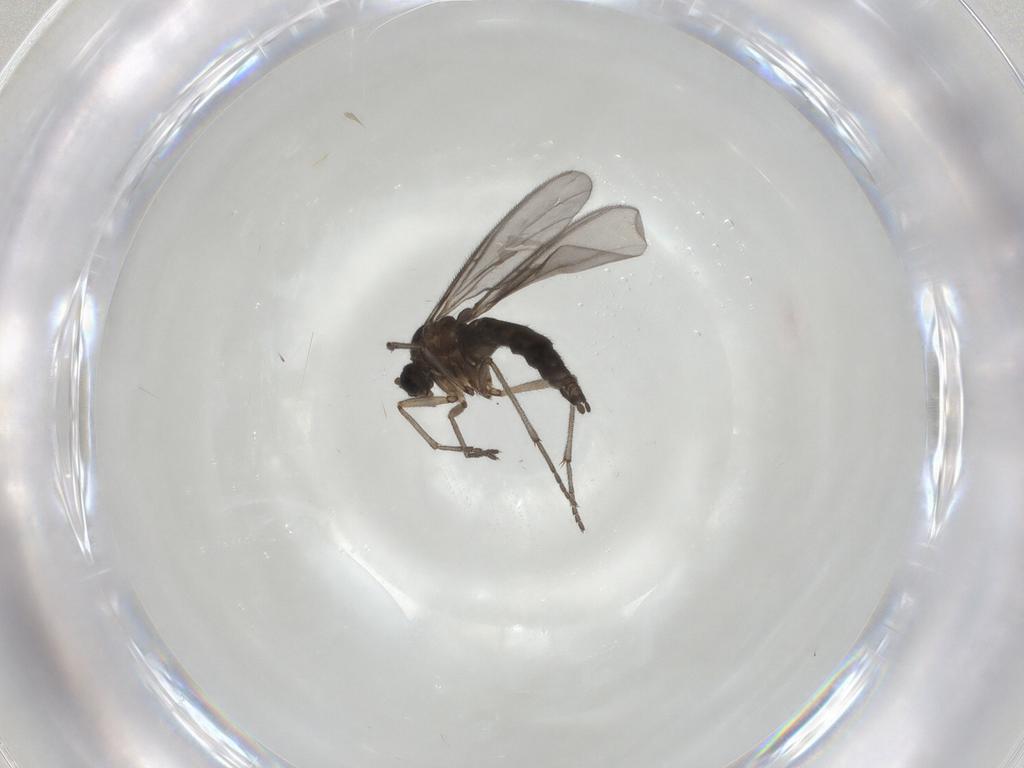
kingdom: Animalia
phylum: Arthropoda
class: Insecta
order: Diptera
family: Sciaridae
